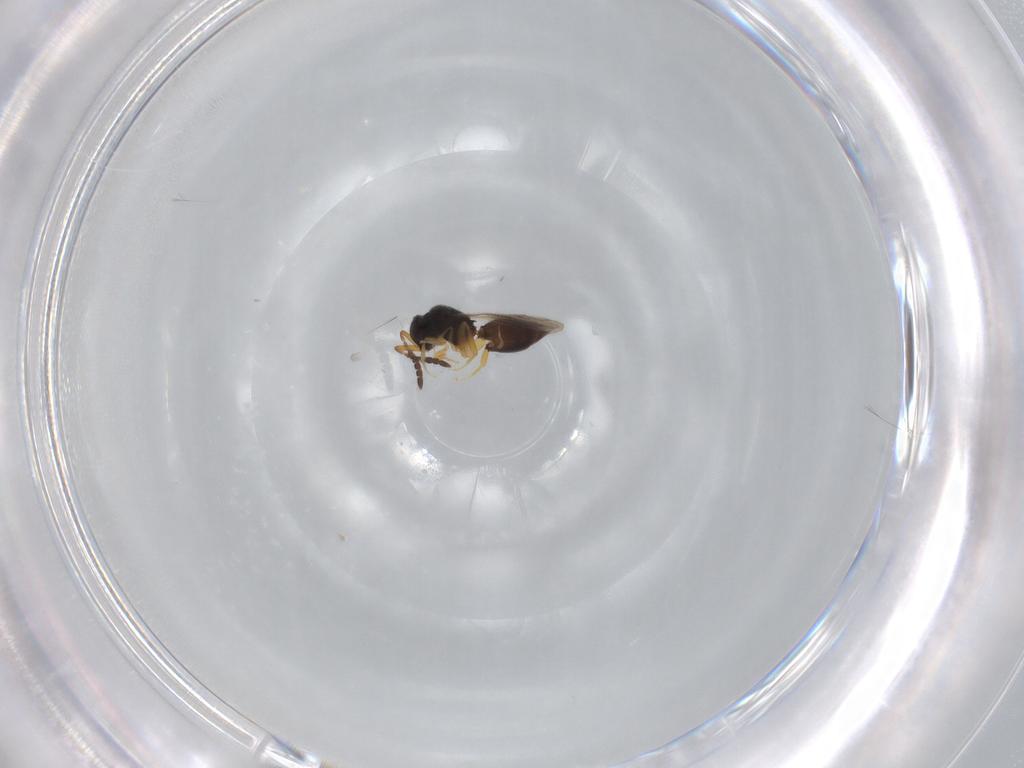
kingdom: Animalia
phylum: Arthropoda
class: Insecta
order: Hymenoptera
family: Ceraphronidae
